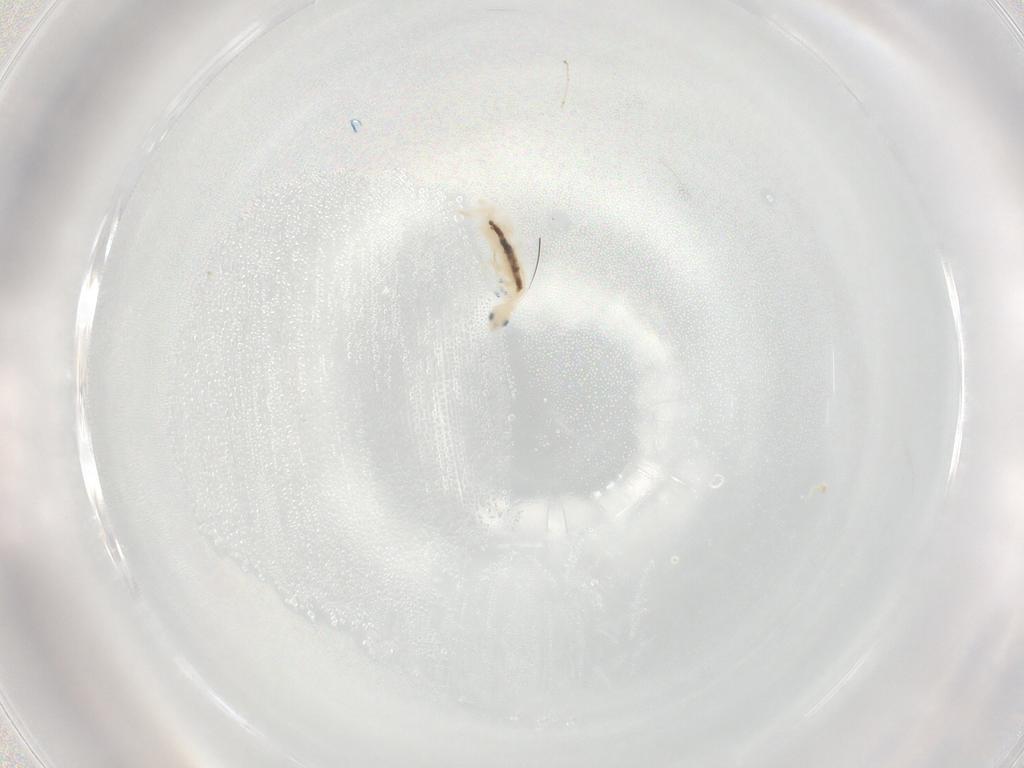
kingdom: Animalia
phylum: Arthropoda
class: Collembola
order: Entomobryomorpha
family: Entomobryidae
